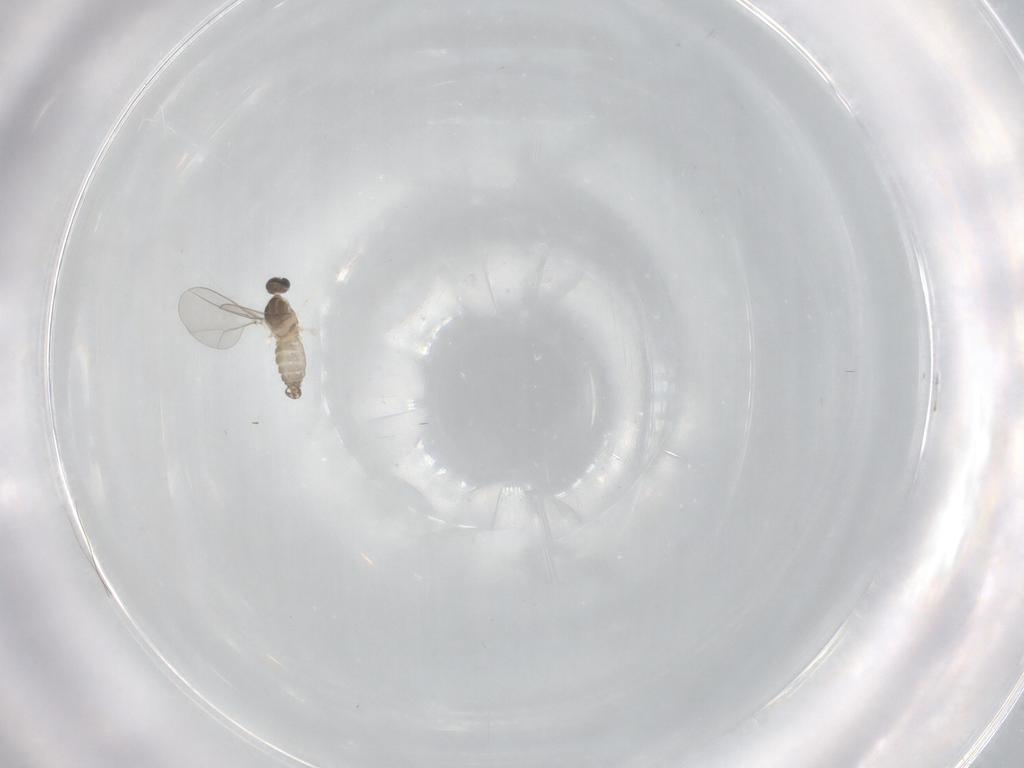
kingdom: Animalia
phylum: Arthropoda
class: Insecta
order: Diptera
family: Cecidomyiidae
